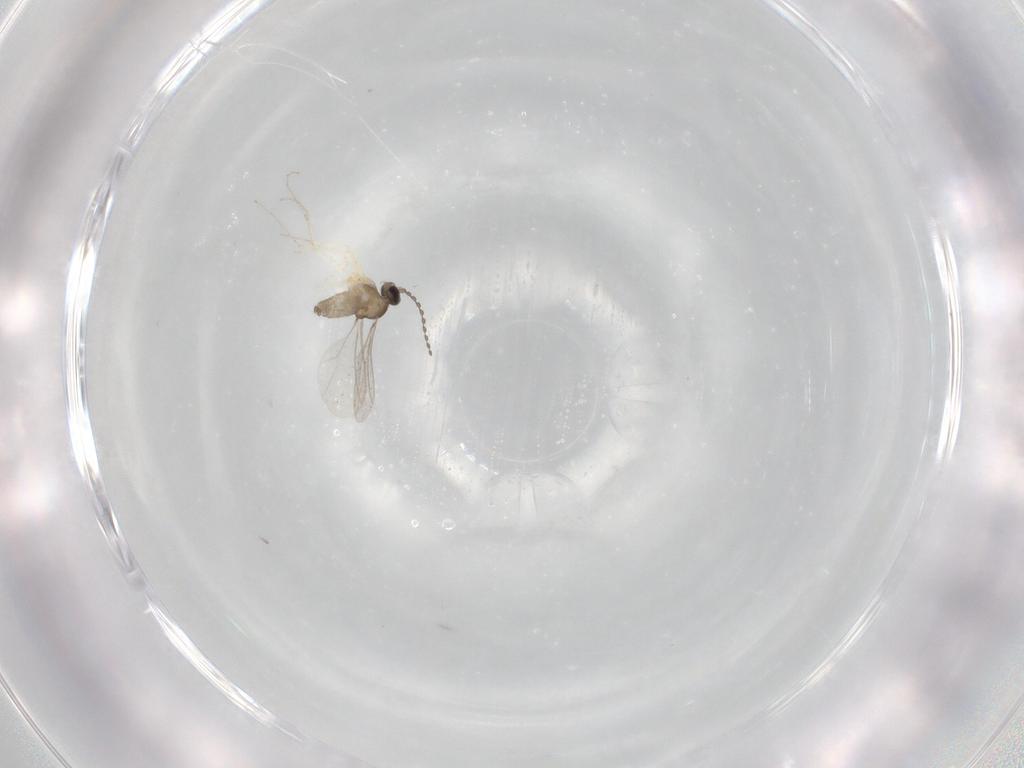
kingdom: Animalia
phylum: Arthropoda
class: Insecta
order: Diptera
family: Cecidomyiidae
